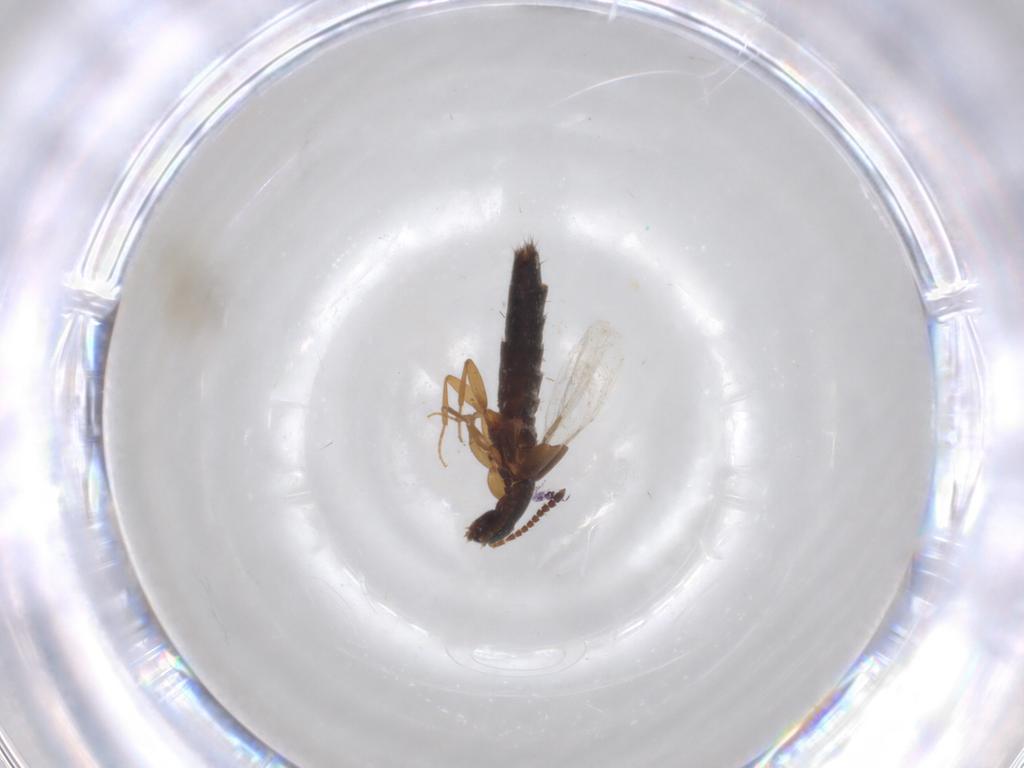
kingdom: Animalia
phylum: Arthropoda
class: Insecta
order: Coleoptera
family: Staphylinidae
